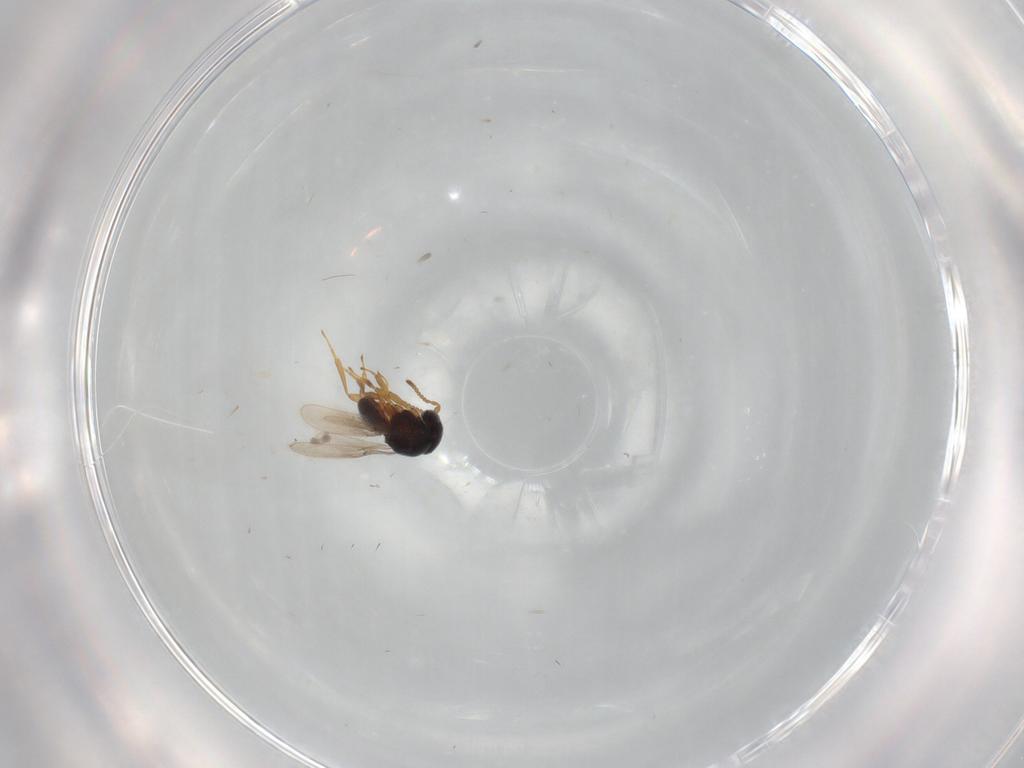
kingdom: Animalia
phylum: Arthropoda
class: Insecta
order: Hymenoptera
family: Scelionidae
